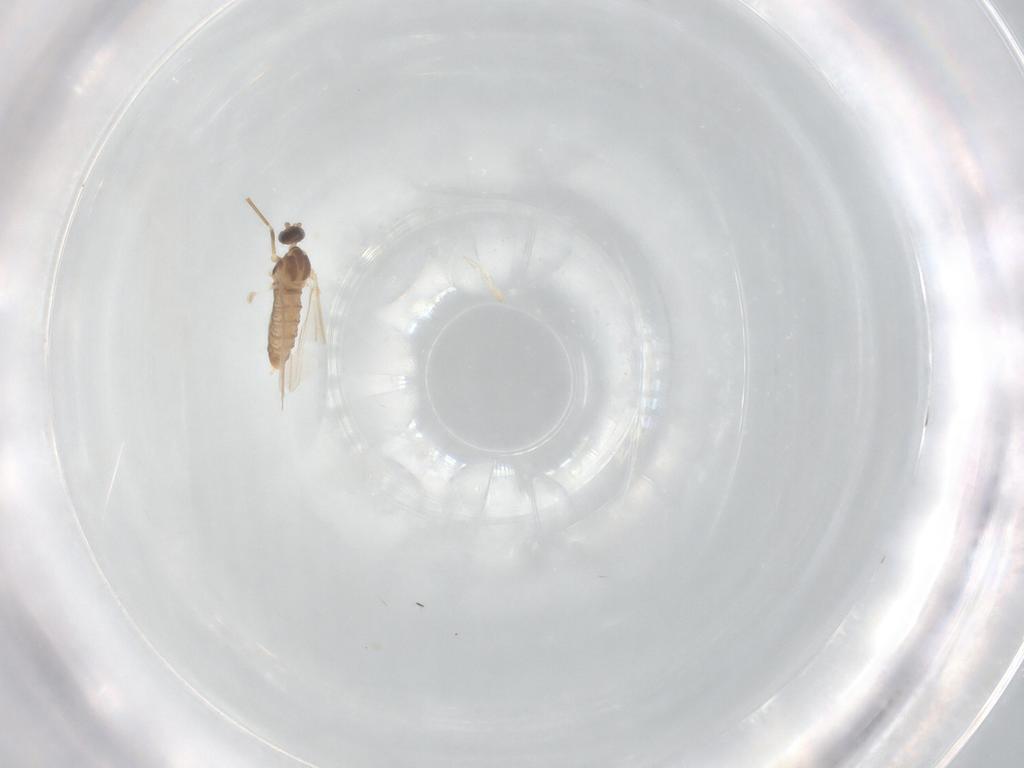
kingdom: Animalia
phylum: Arthropoda
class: Insecta
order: Diptera
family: Cecidomyiidae
